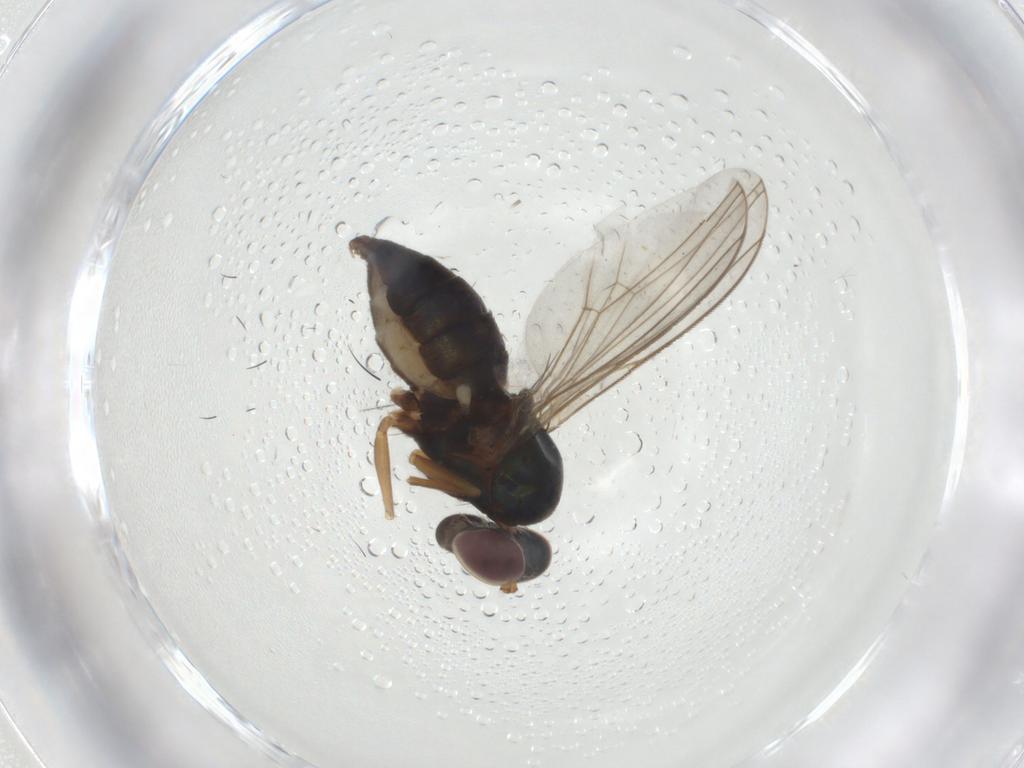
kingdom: Animalia
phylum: Arthropoda
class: Insecta
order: Diptera
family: Dolichopodidae
